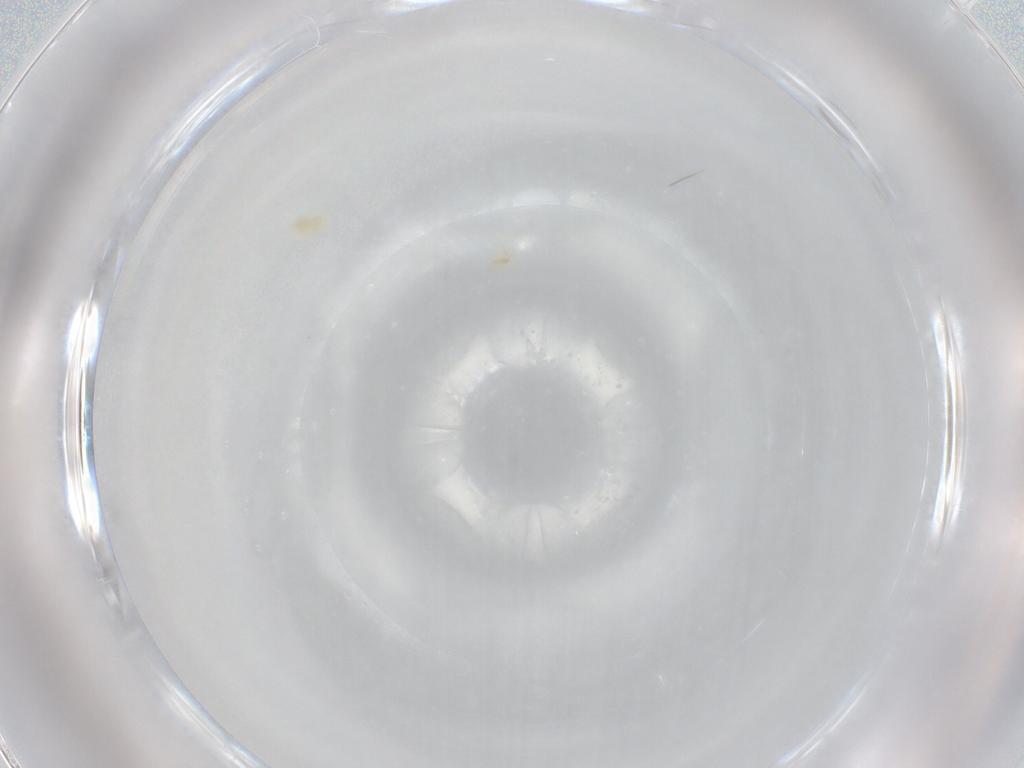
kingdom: Animalia
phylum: Arthropoda
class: Arachnida
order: Trombidiformes
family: Eupodidae
